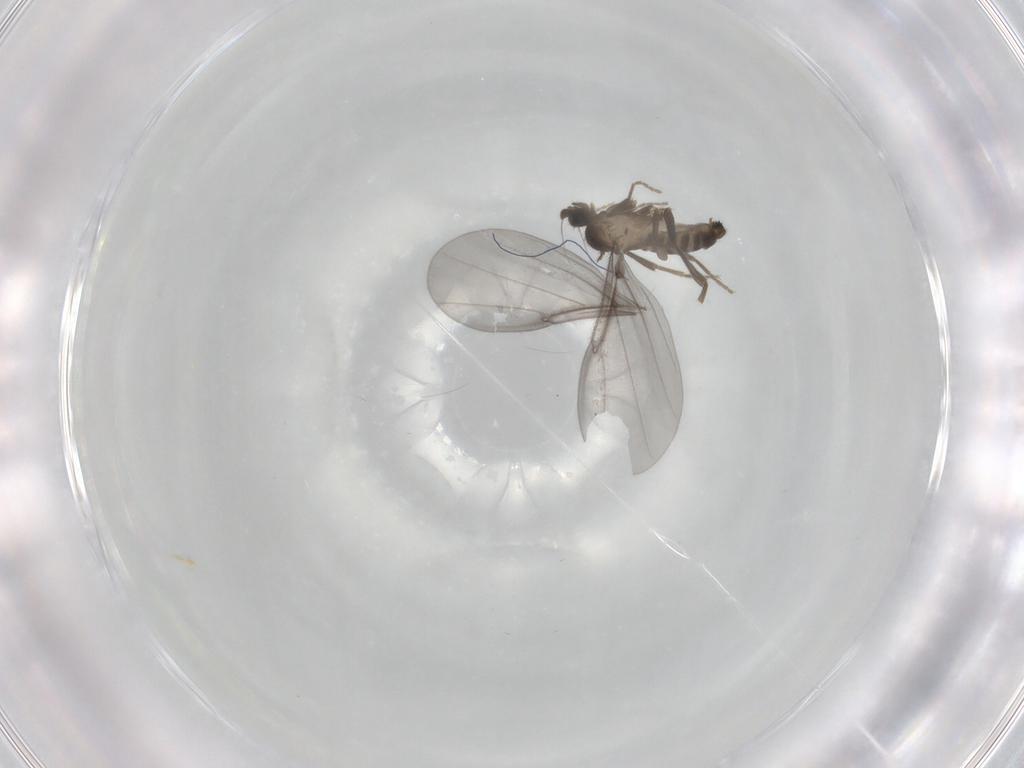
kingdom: Animalia
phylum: Arthropoda
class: Insecta
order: Diptera
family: Phoridae
